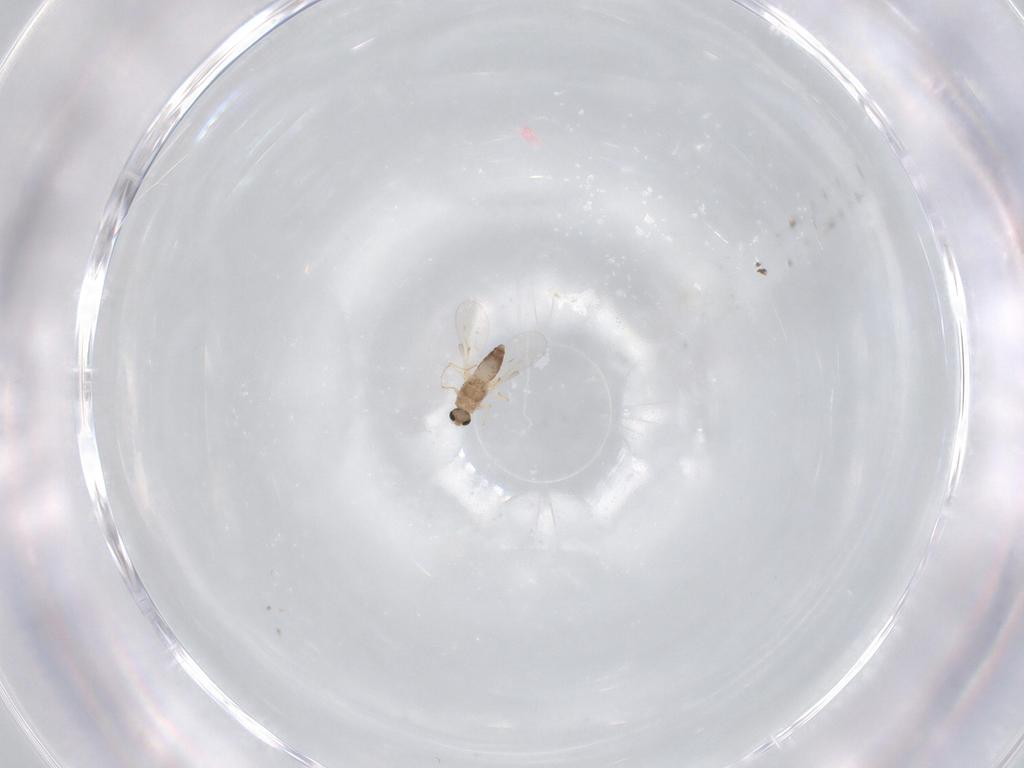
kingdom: Animalia
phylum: Arthropoda
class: Insecta
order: Diptera
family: Chironomidae
